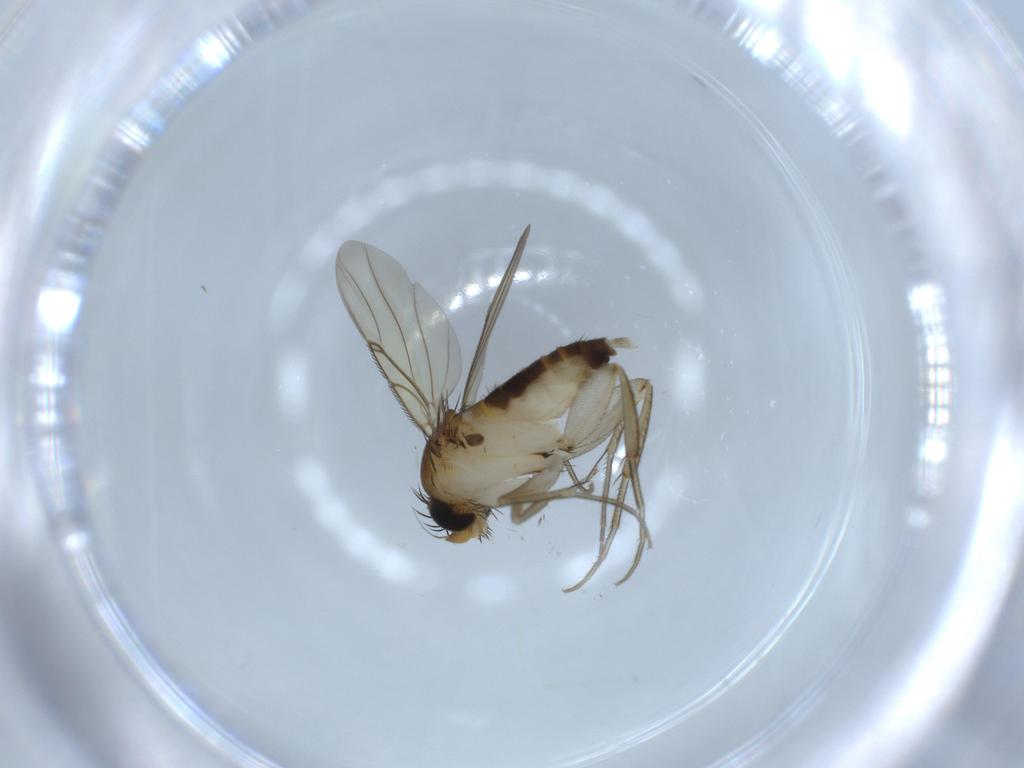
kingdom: Animalia
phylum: Arthropoda
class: Insecta
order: Diptera
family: Phoridae
